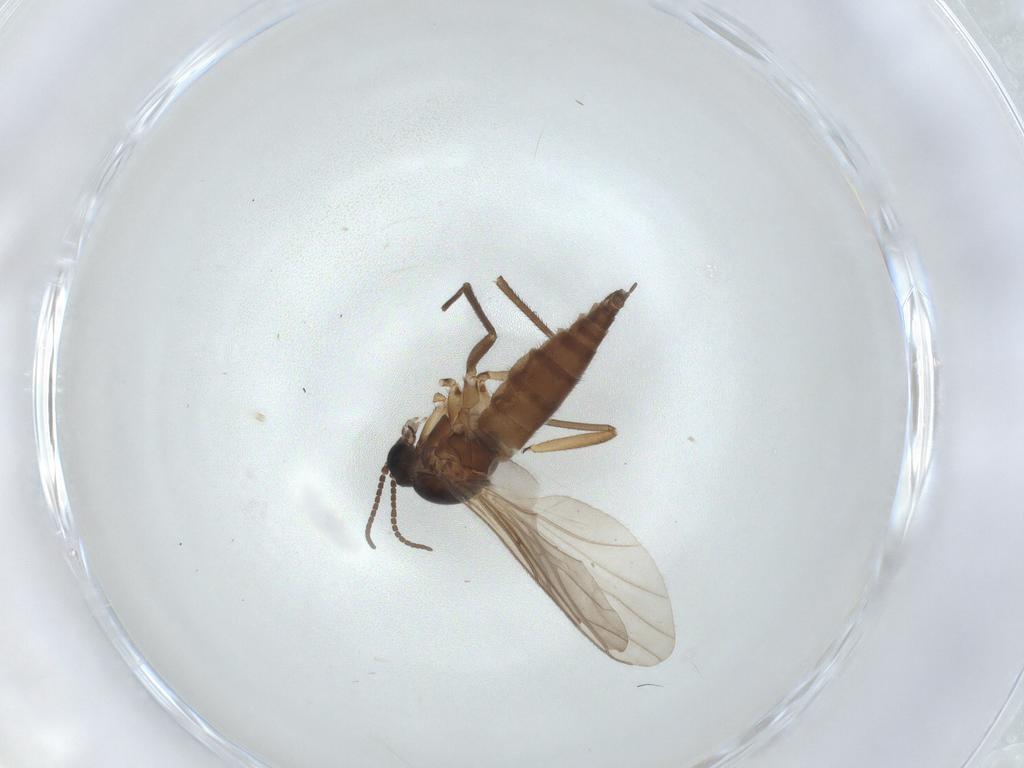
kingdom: Animalia
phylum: Arthropoda
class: Insecta
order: Diptera
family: Sciaridae
